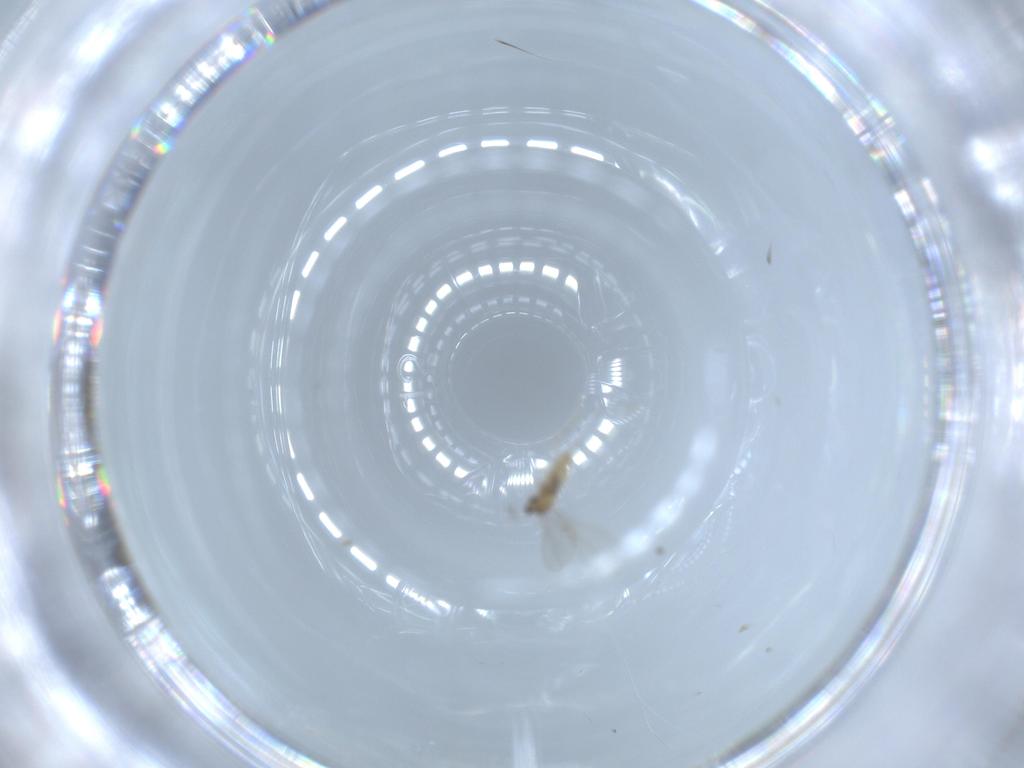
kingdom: Animalia
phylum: Arthropoda
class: Insecta
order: Diptera
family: Cecidomyiidae
